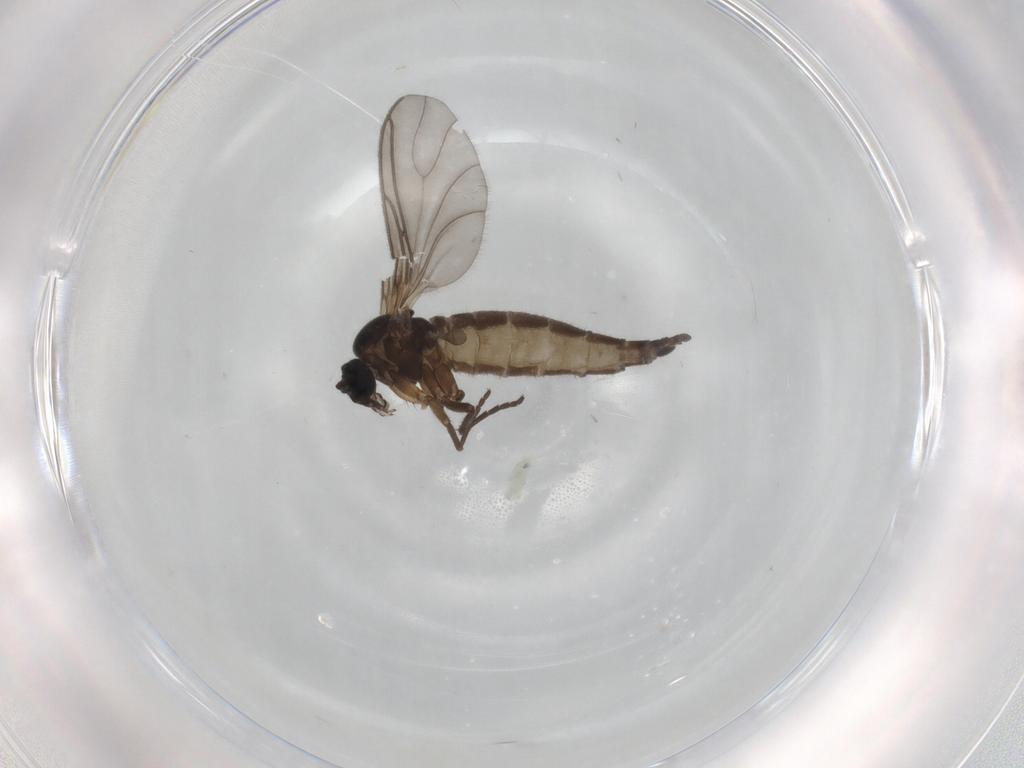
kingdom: Animalia
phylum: Arthropoda
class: Insecta
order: Diptera
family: Sciaridae
